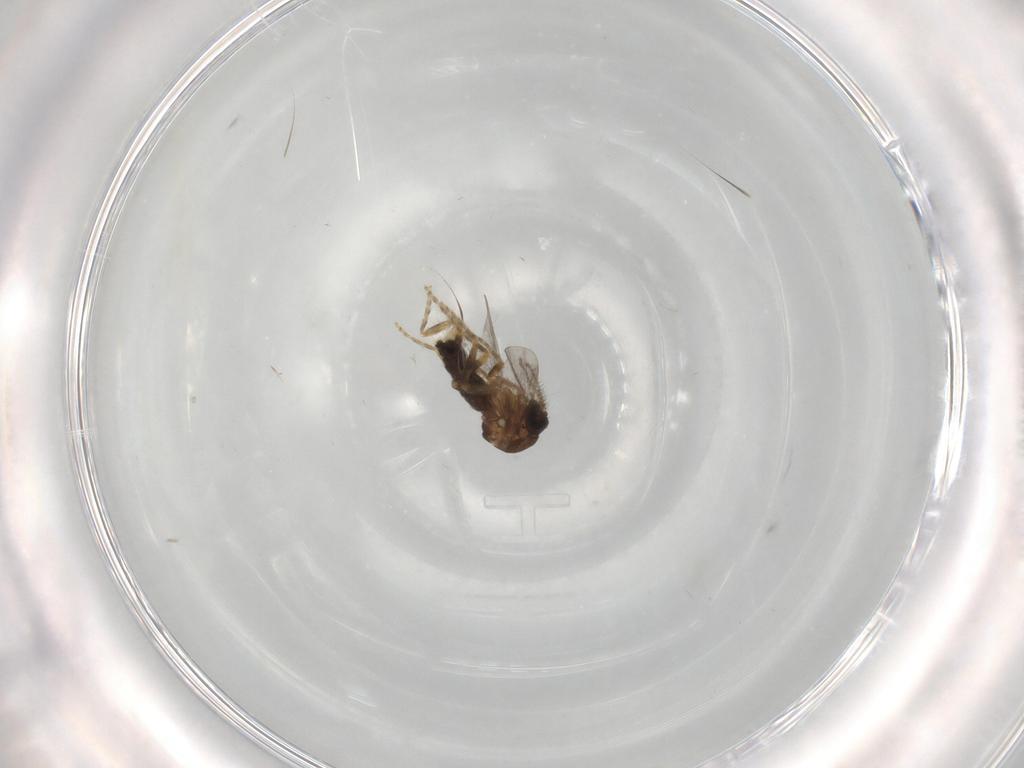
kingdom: Animalia
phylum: Arthropoda
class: Insecta
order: Diptera
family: Ceratopogonidae
